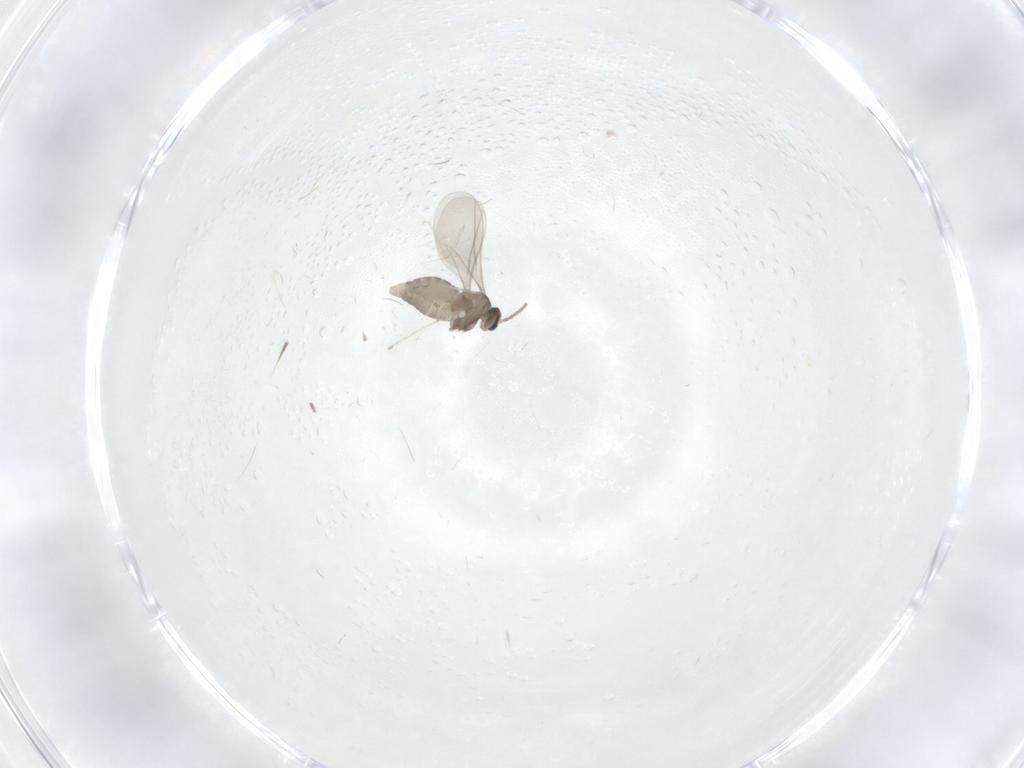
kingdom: Animalia
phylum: Arthropoda
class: Insecta
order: Diptera
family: Cecidomyiidae
